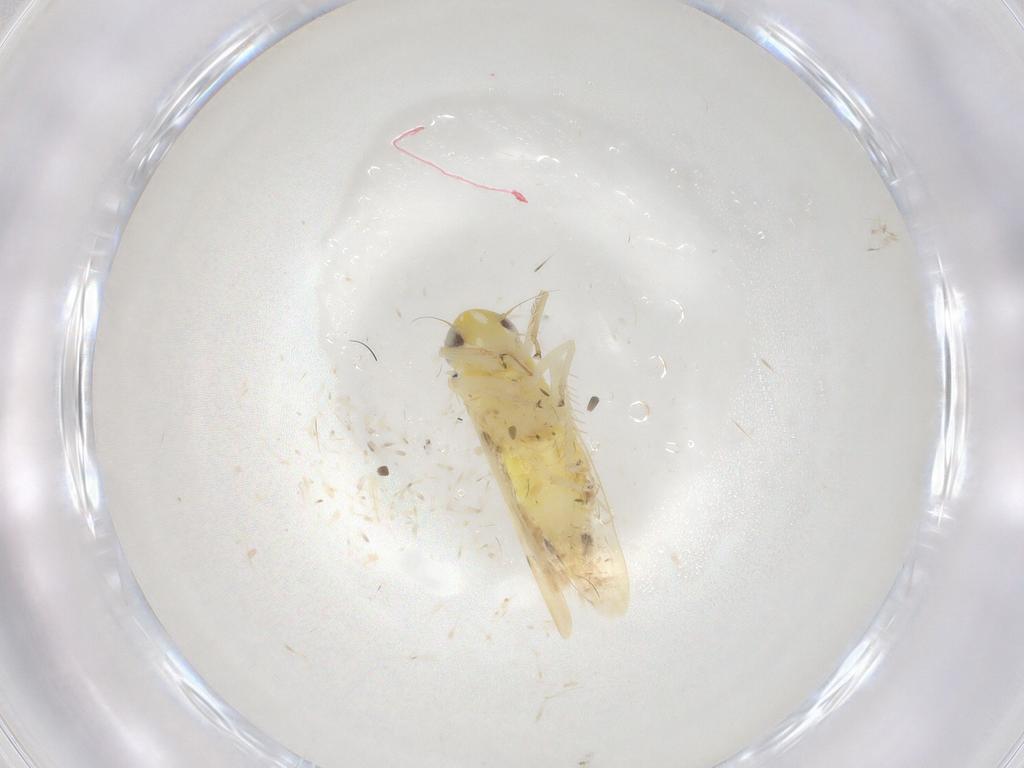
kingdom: Animalia
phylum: Arthropoda
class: Insecta
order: Hemiptera
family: Cicadellidae
